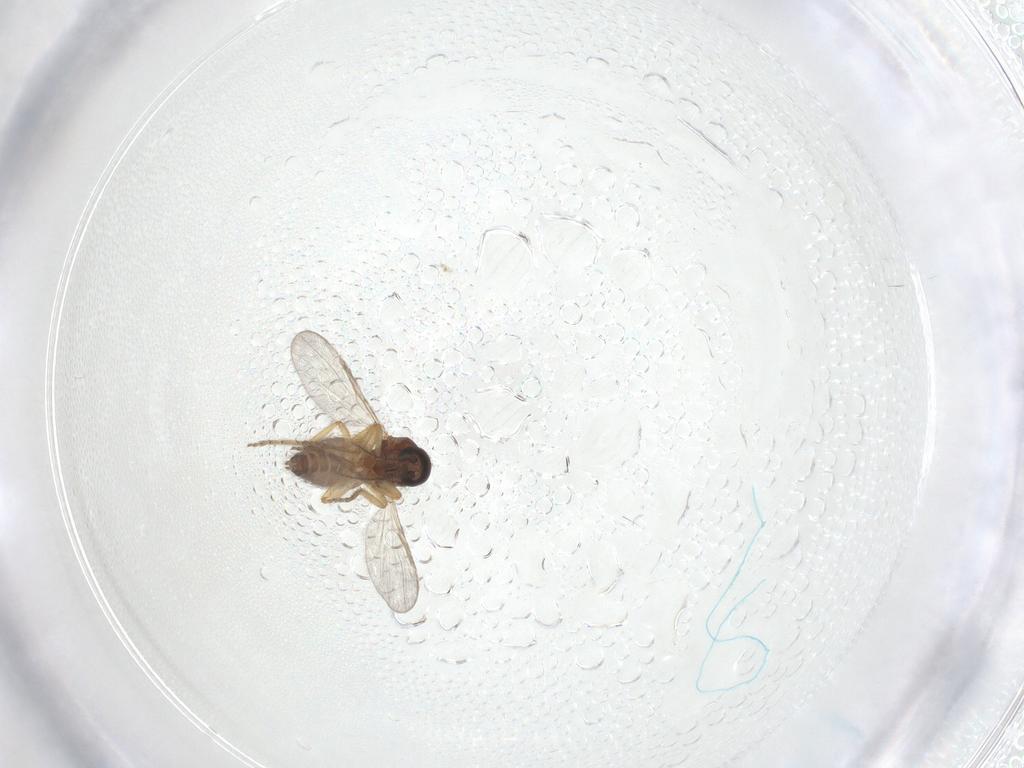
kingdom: Animalia
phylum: Arthropoda
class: Insecta
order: Diptera
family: Ceratopogonidae
